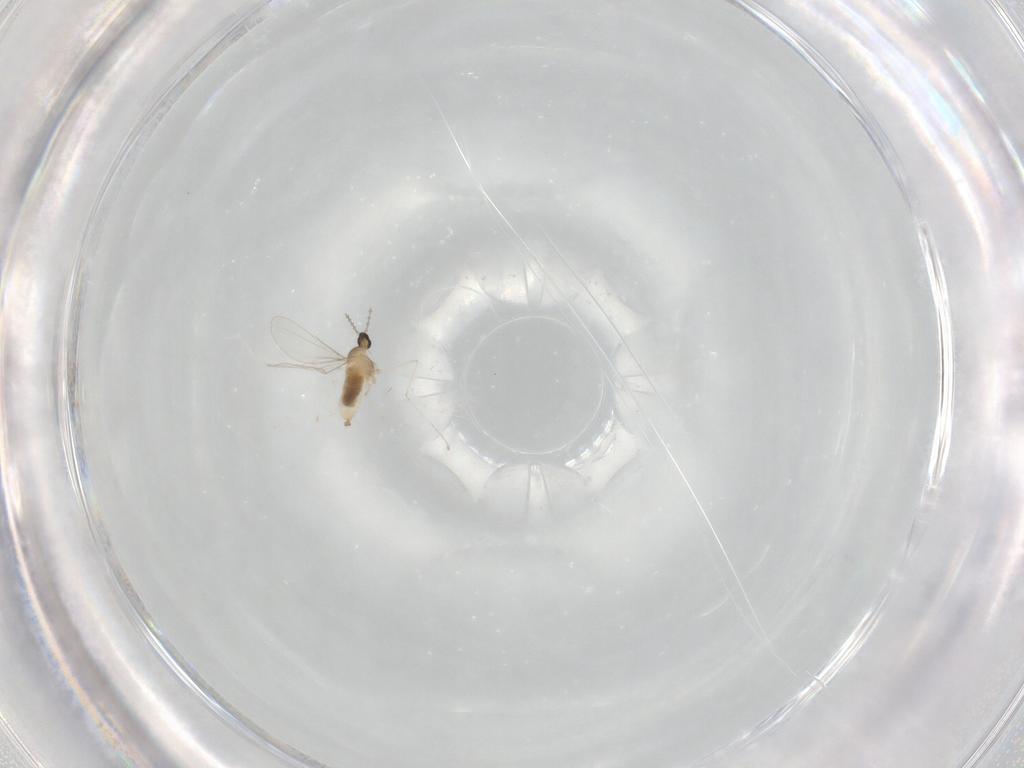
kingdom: Animalia
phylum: Arthropoda
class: Insecta
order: Diptera
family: Cecidomyiidae
